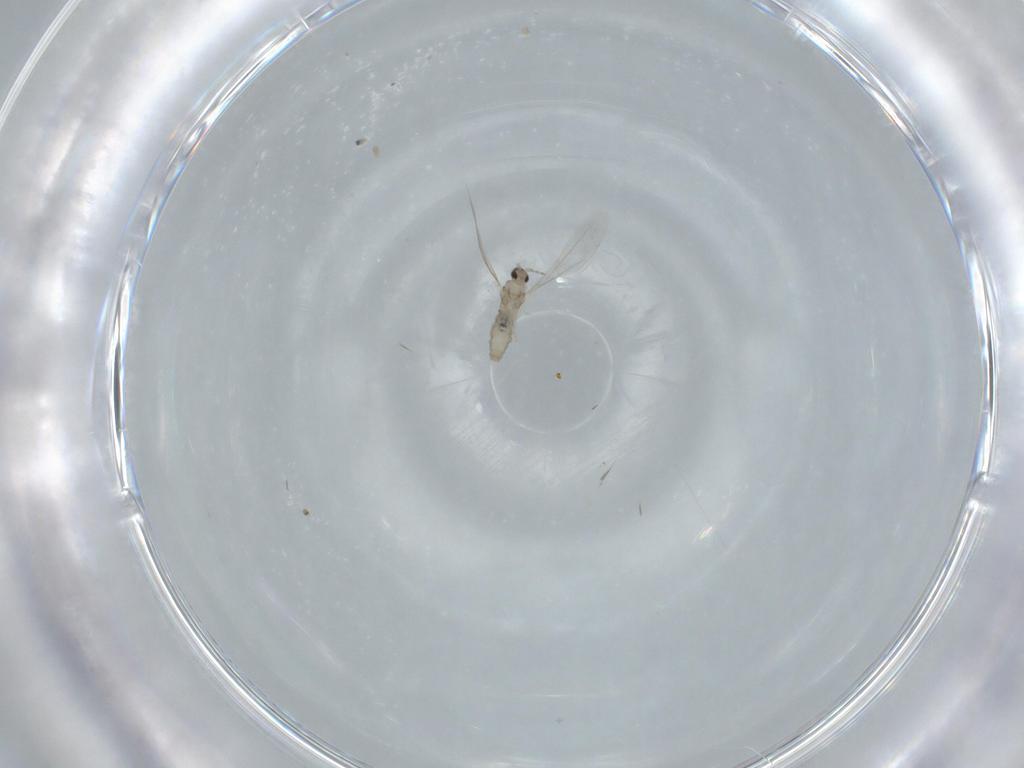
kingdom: Animalia
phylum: Arthropoda
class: Insecta
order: Diptera
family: Cecidomyiidae
